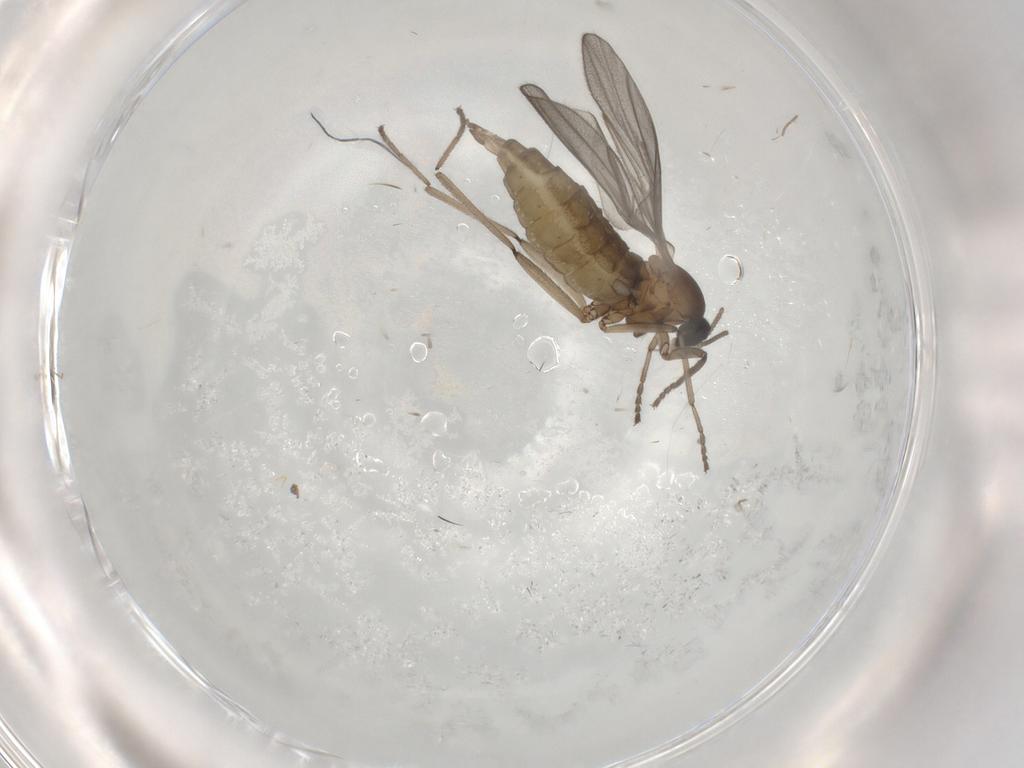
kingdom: Animalia
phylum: Arthropoda
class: Insecta
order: Diptera
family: Cecidomyiidae
